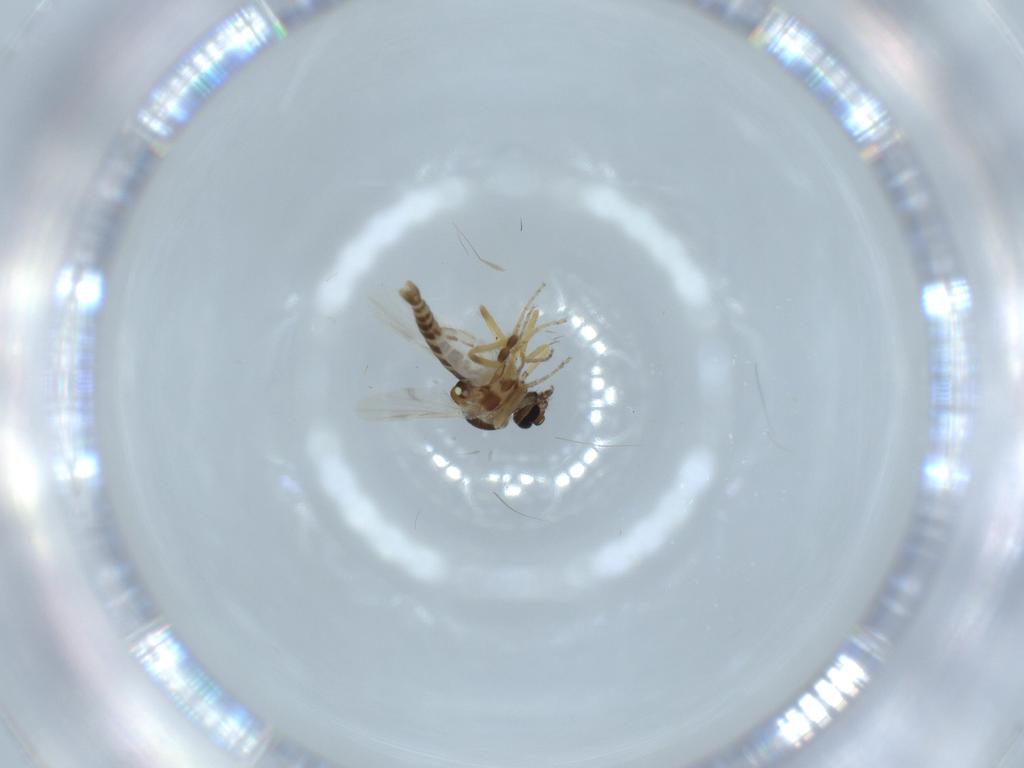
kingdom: Animalia
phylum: Arthropoda
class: Insecta
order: Diptera
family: Ceratopogonidae
